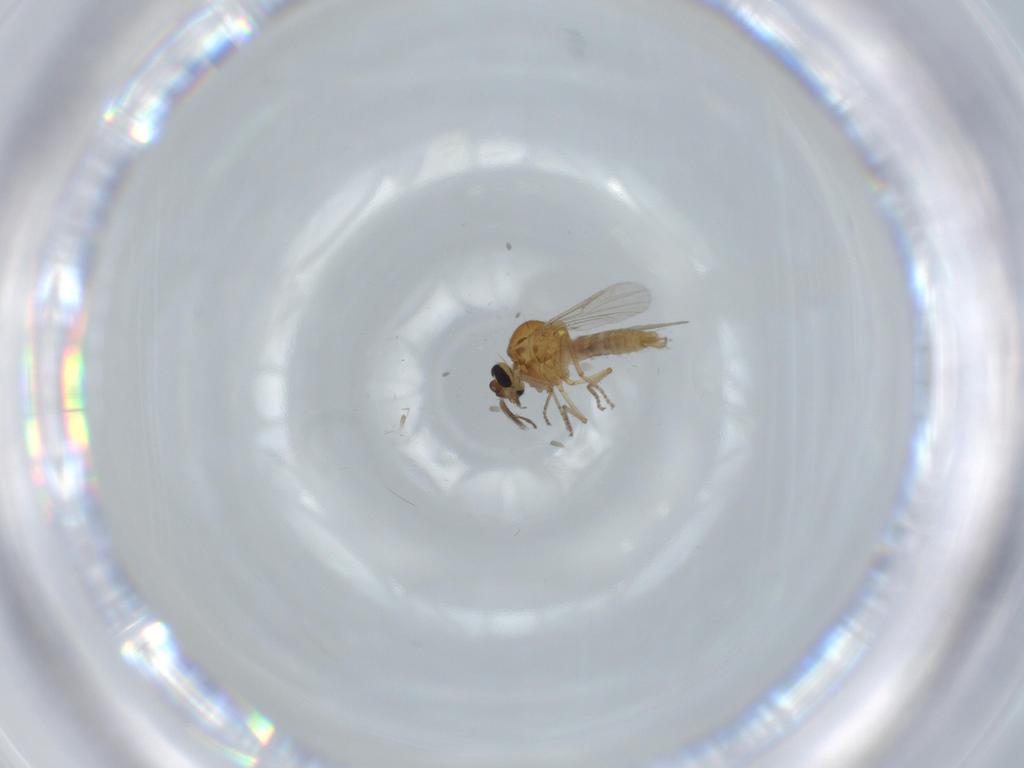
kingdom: Animalia
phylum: Arthropoda
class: Insecta
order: Diptera
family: Ceratopogonidae
